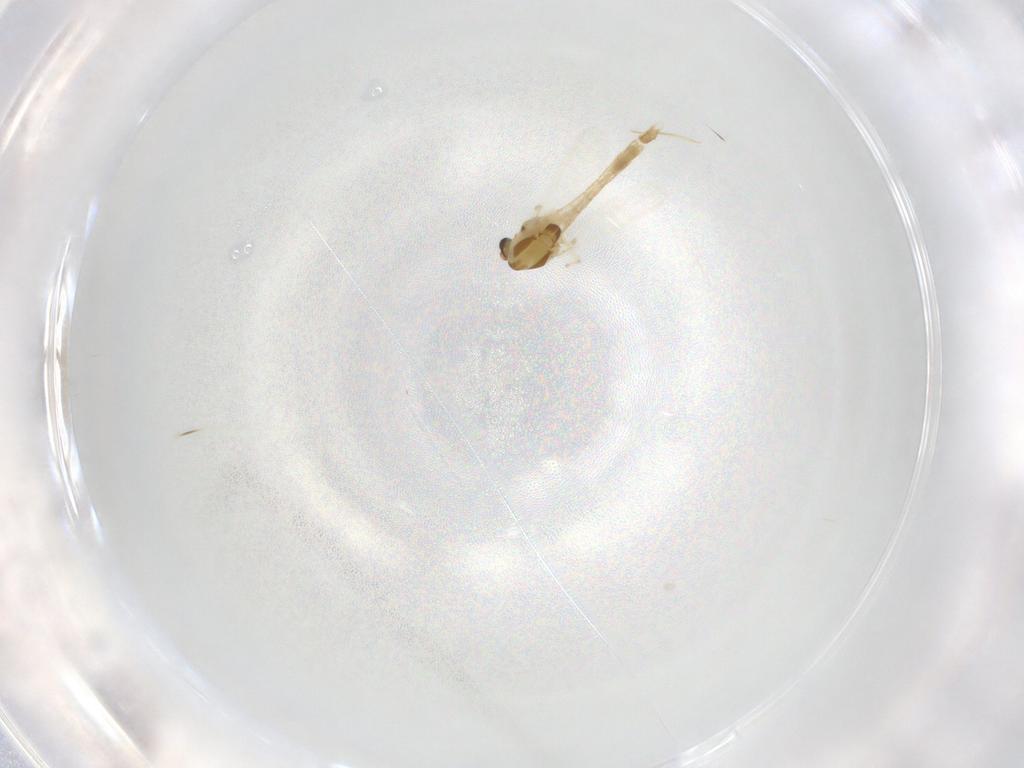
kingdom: Animalia
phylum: Arthropoda
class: Insecta
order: Diptera
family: Chironomidae
